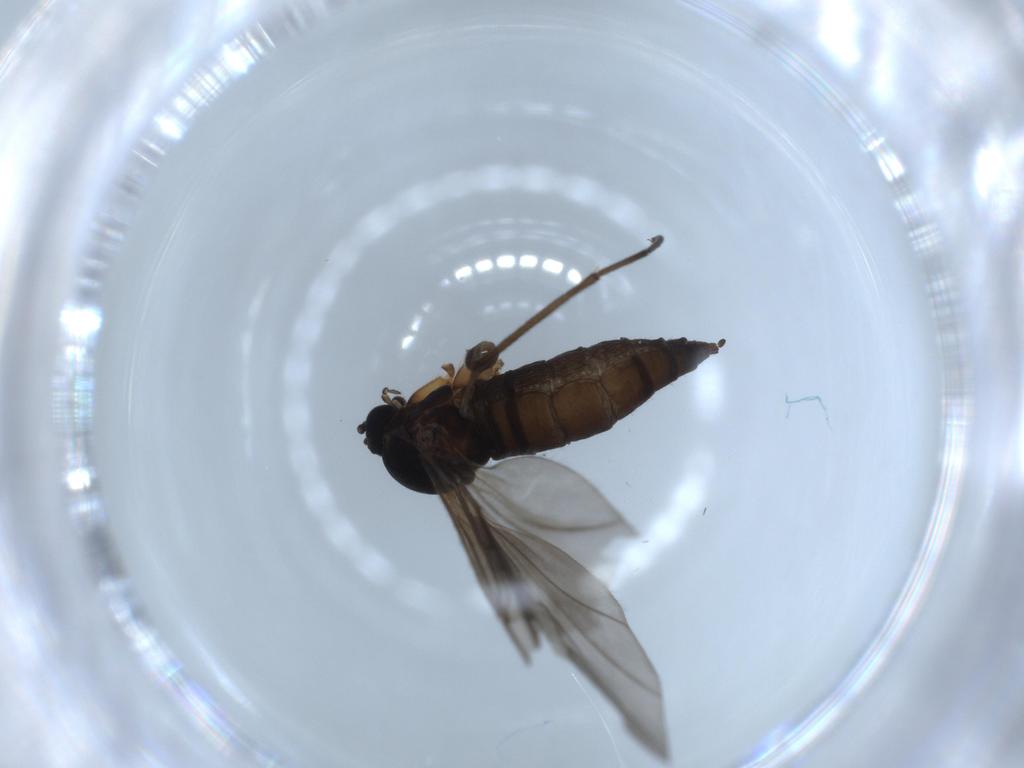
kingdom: Animalia
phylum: Arthropoda
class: Insecta
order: Diptera
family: Sciaridae
